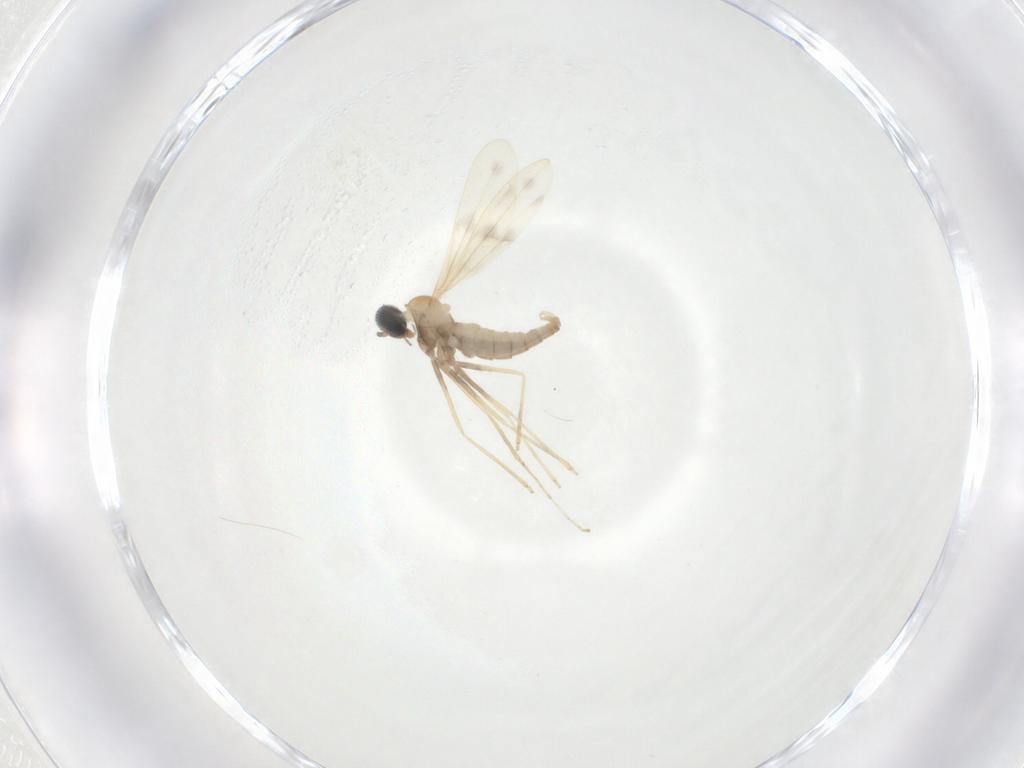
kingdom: Animalia
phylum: Arthropoda
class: Insecta
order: Diptera
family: Cecidomyiidae
